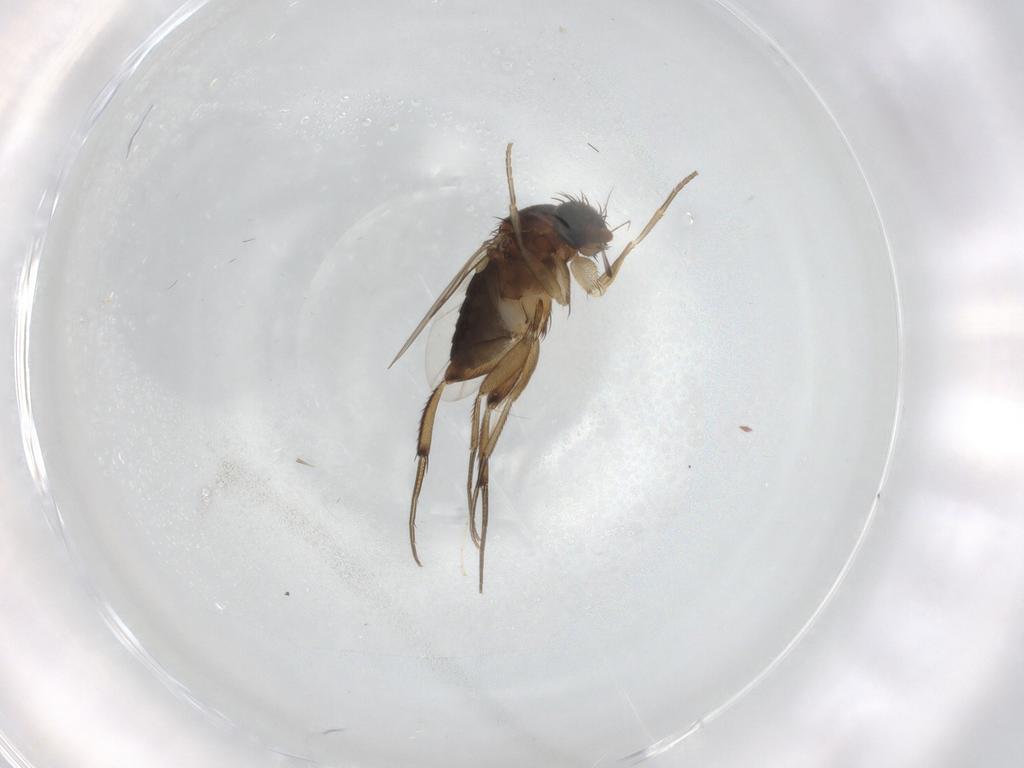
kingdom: Animalia
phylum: Arthropoda
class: Insecta
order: Diptera
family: Phoridae
